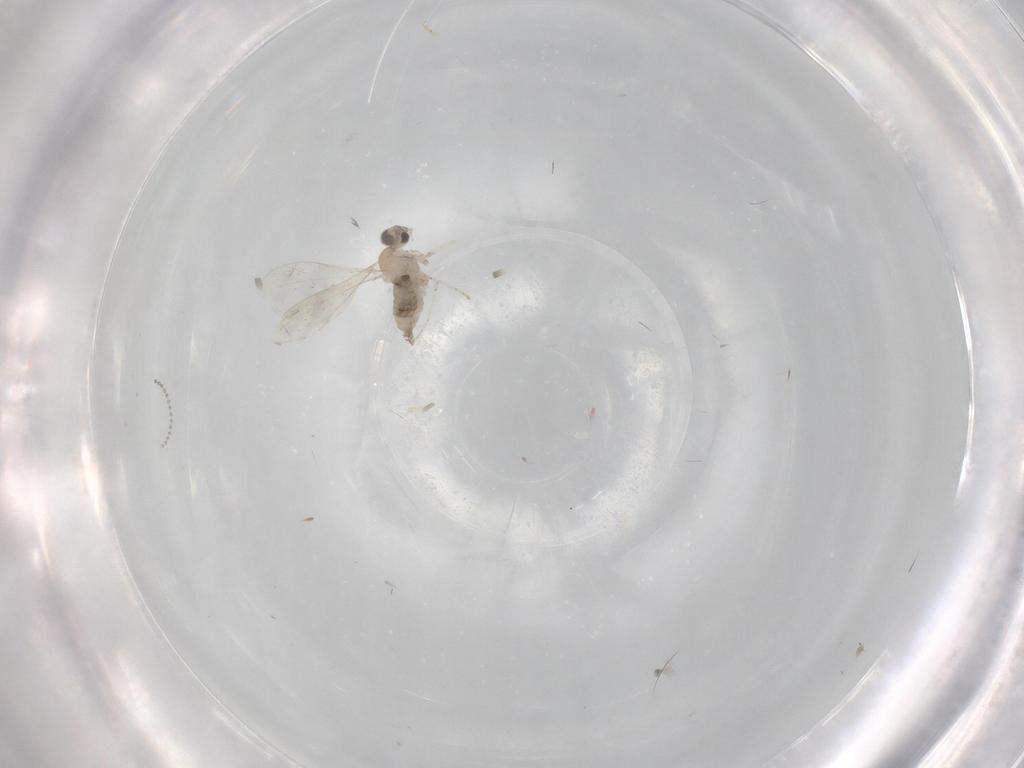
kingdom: Animalia
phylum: Arthropoda
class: Insecta
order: Diptera
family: Cecidomyiidae
